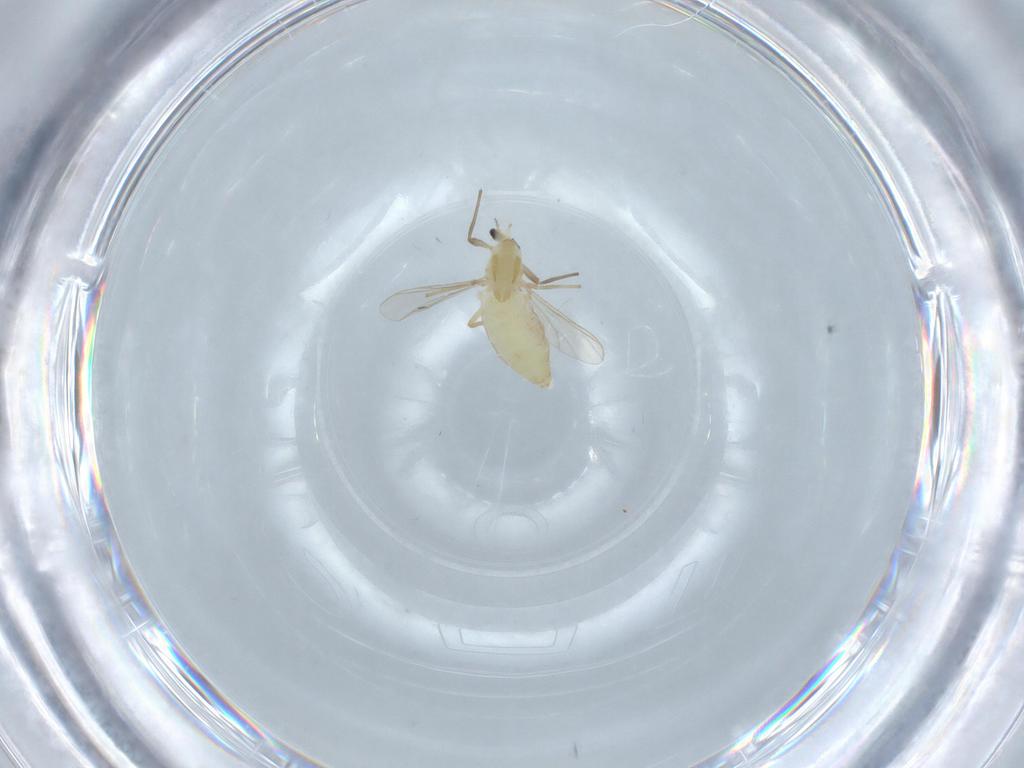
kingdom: Animalia
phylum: Arthropoda
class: Insecta
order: Diptera
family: Chironomidae
